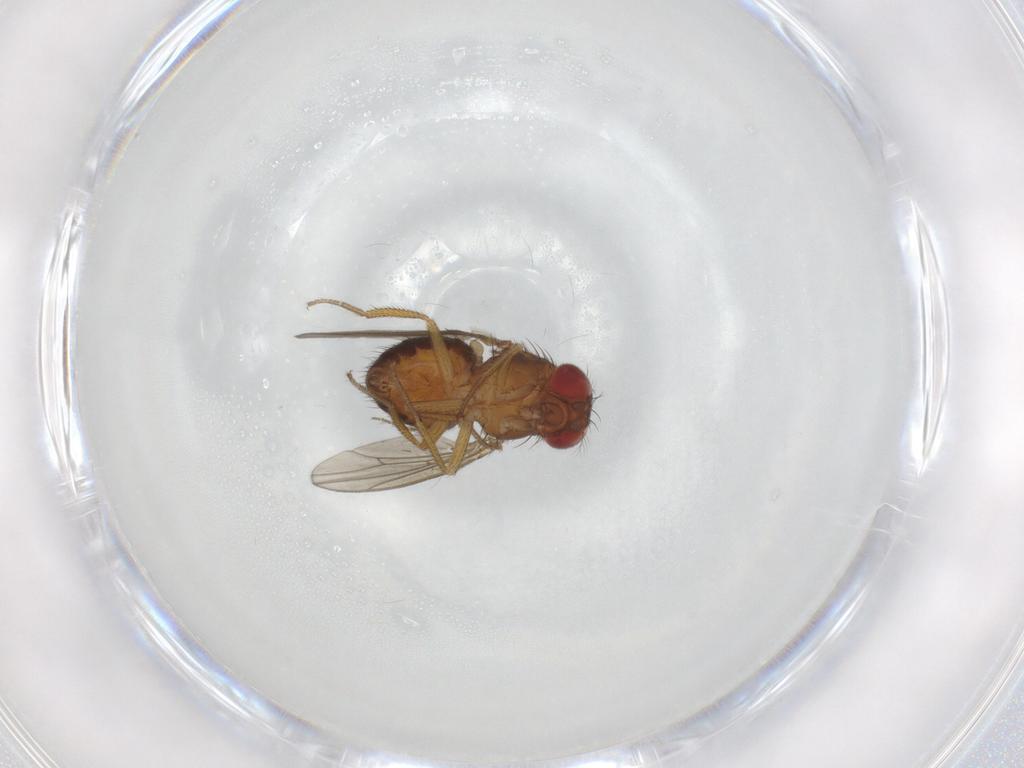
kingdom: Animalia
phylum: Arthropoda
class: Insecta
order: Diptera
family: Drosophilidae
